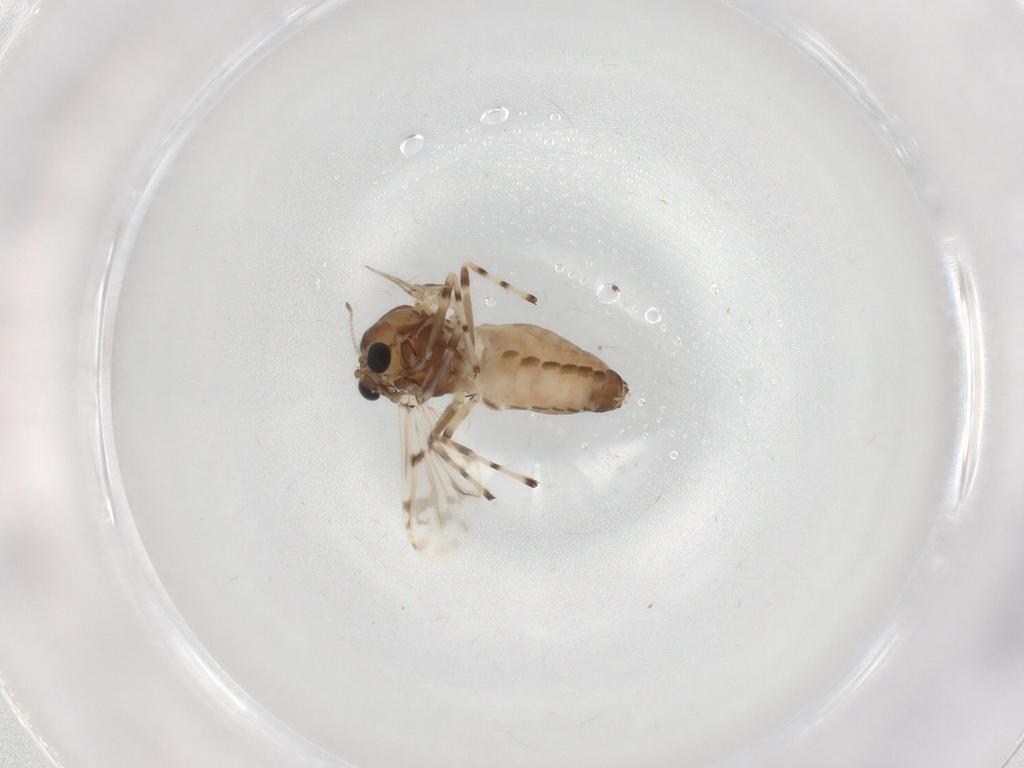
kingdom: Animalia
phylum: Arthropoda
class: Insecta
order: Diptera
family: Chironomidae
